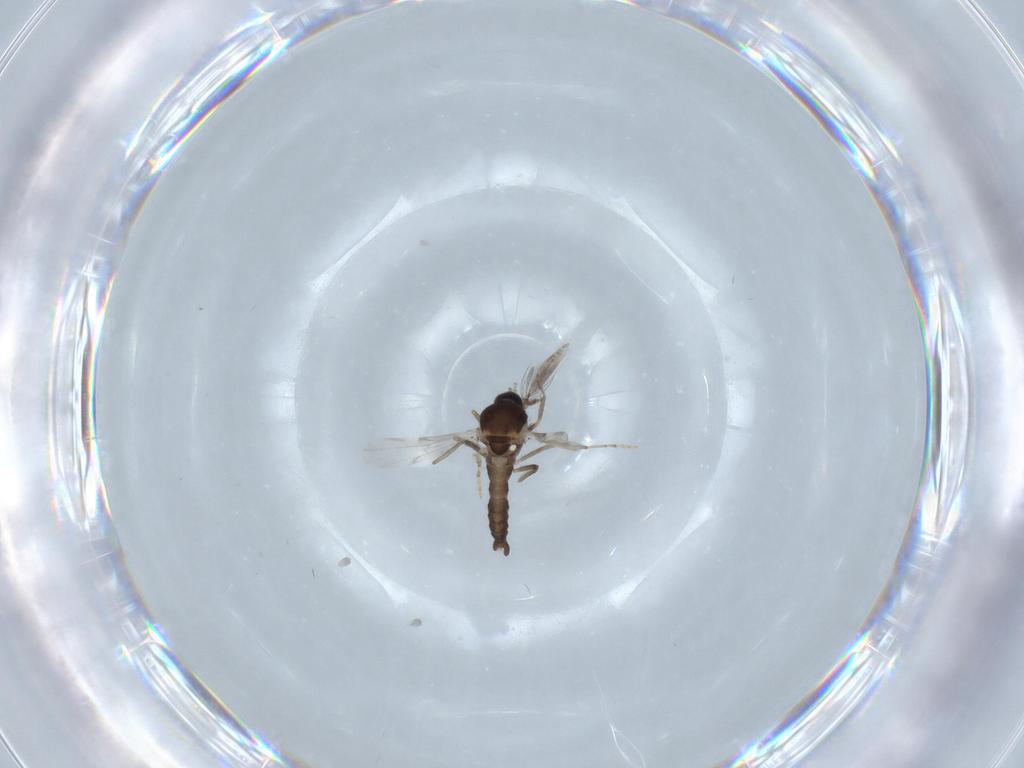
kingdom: Animalia
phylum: Arthropoda
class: Insecta
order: Diptera
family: Ceratopogonidae
